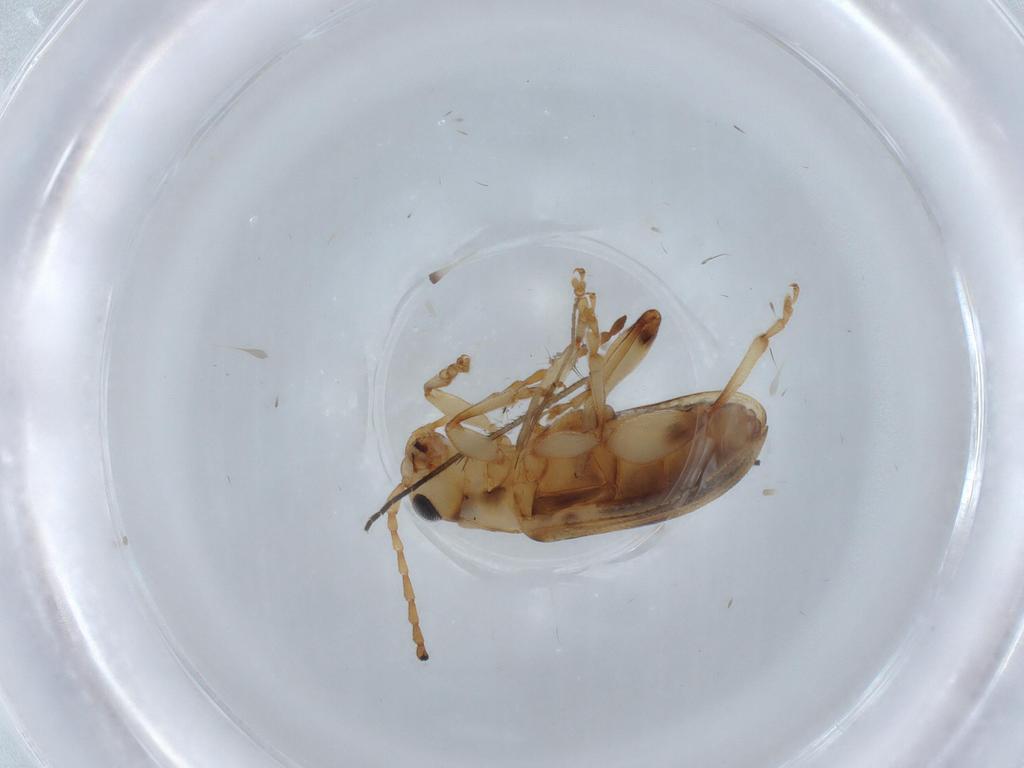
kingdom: Animalia
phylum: Arthropoda
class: Insecta
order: Coleoptera
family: Chrysomelidae
